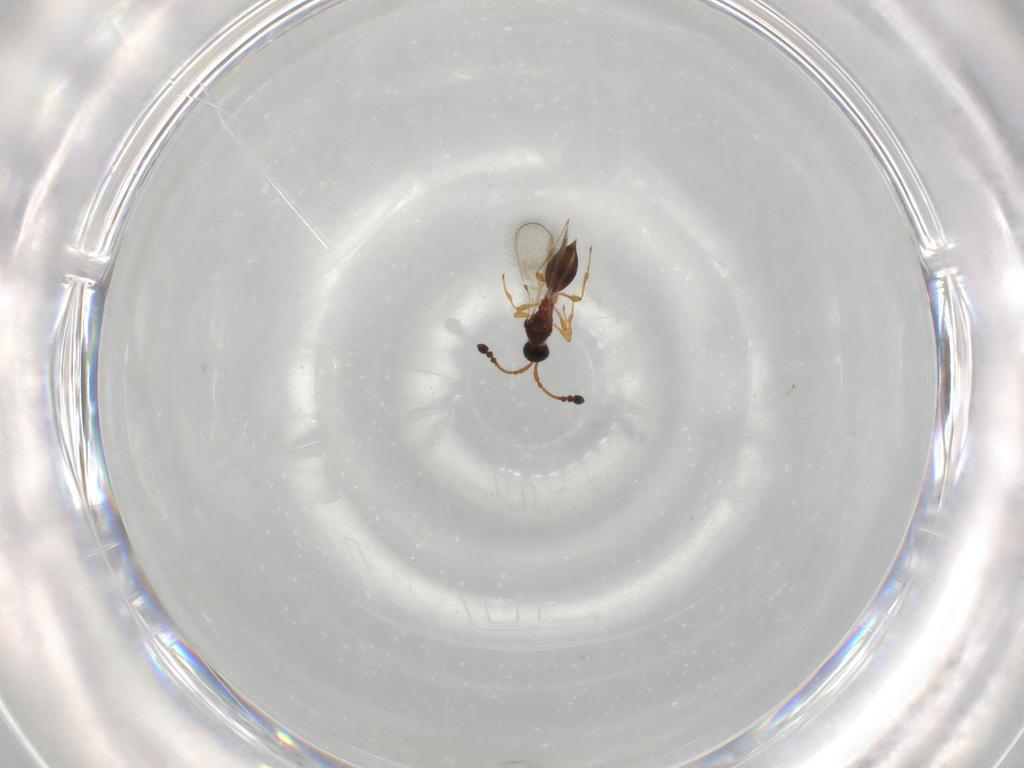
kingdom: Animalia
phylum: Arthropoda
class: Insecta
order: Hymenoptera
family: Diapriidae
